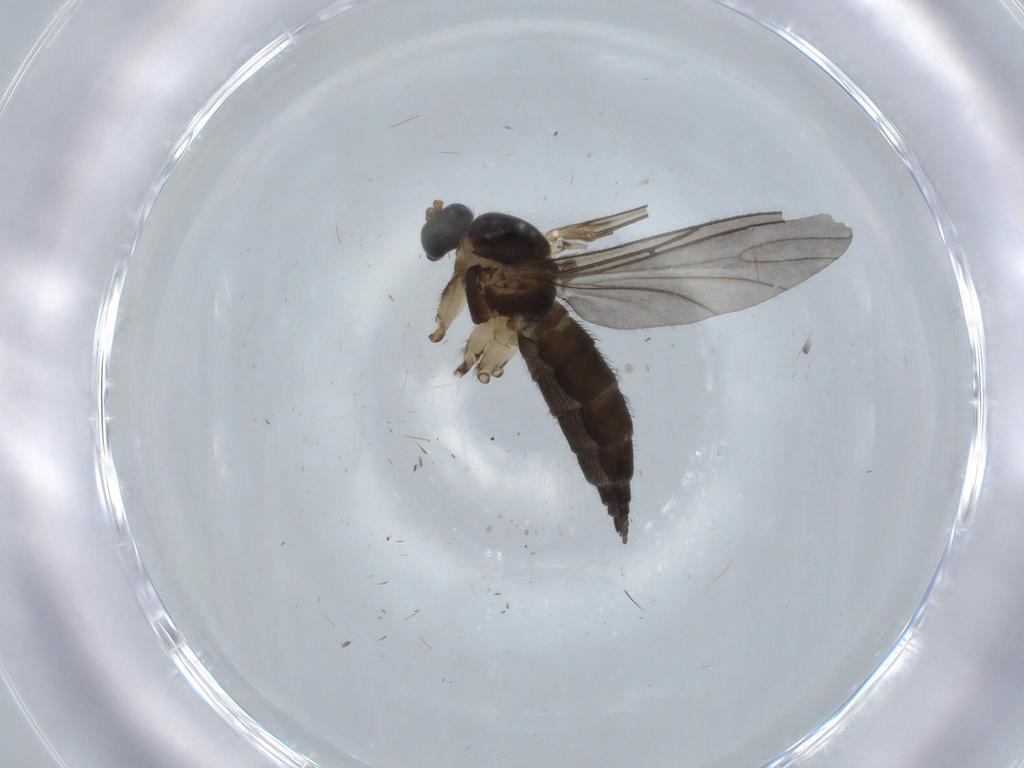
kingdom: Animalia
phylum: Arthropoda
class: Insecta
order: Diptera
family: Sciaridae
